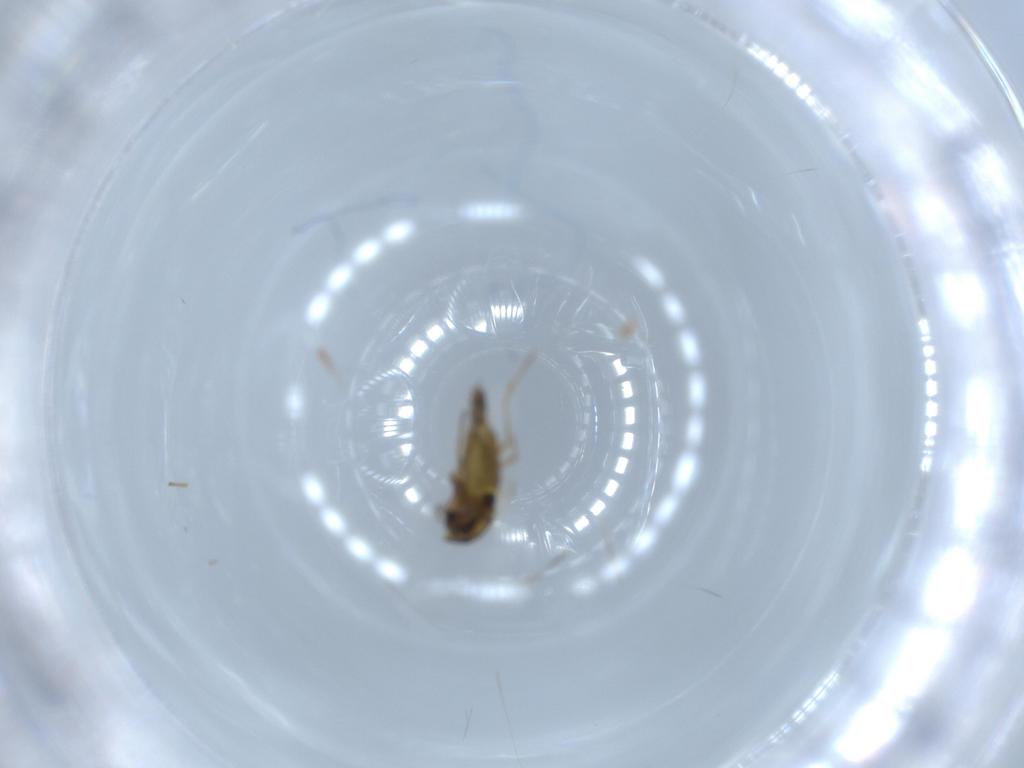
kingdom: Animalia
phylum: Arthropoda
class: Insecta
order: Diptera
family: Chironomidae
